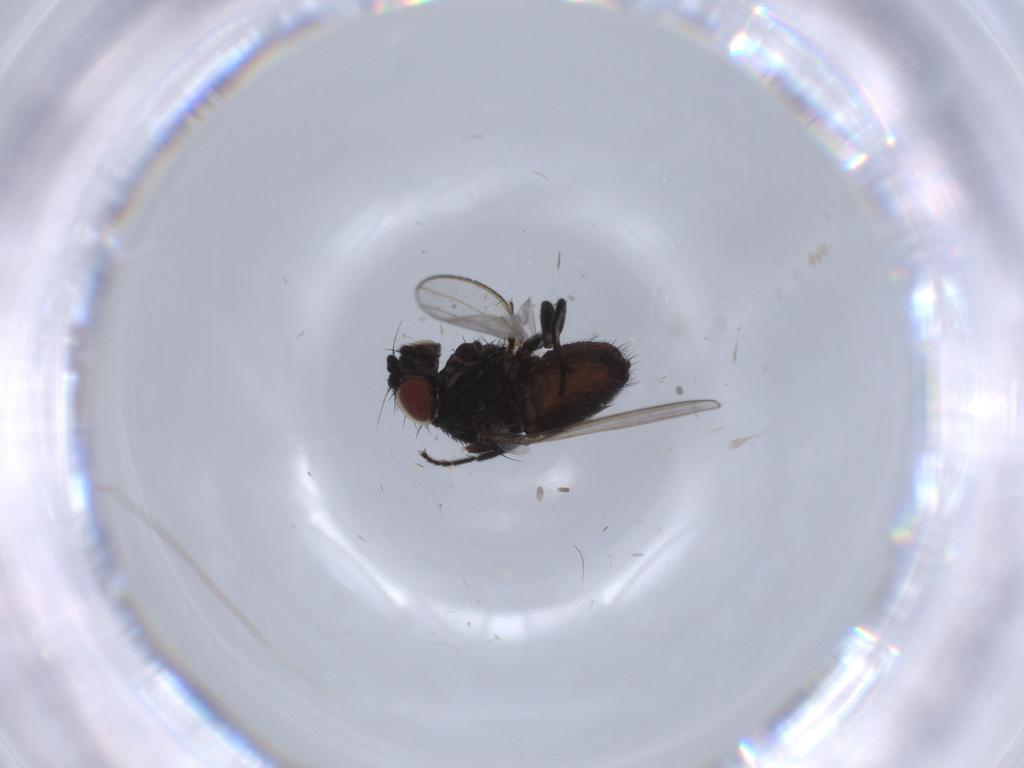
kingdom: Animalia
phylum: Arthropoda
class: Insecta
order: Diptera
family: Milichiidae
